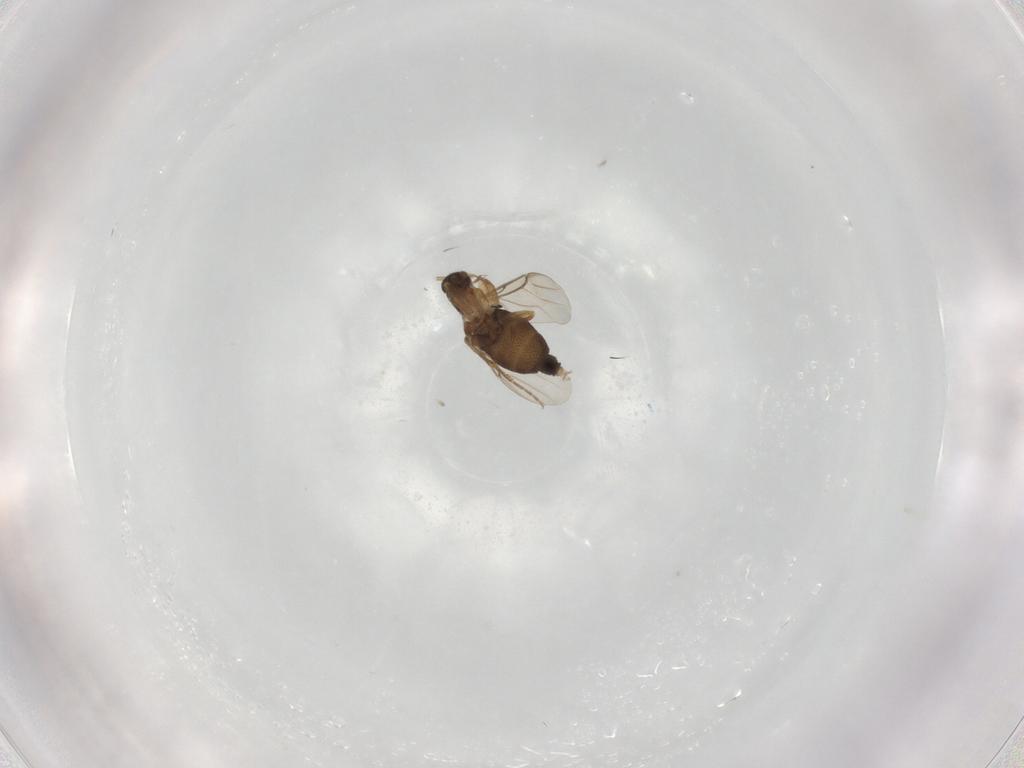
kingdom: Animalia
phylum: Arthropoda
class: Insecta
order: Diptera
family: Phoridae
